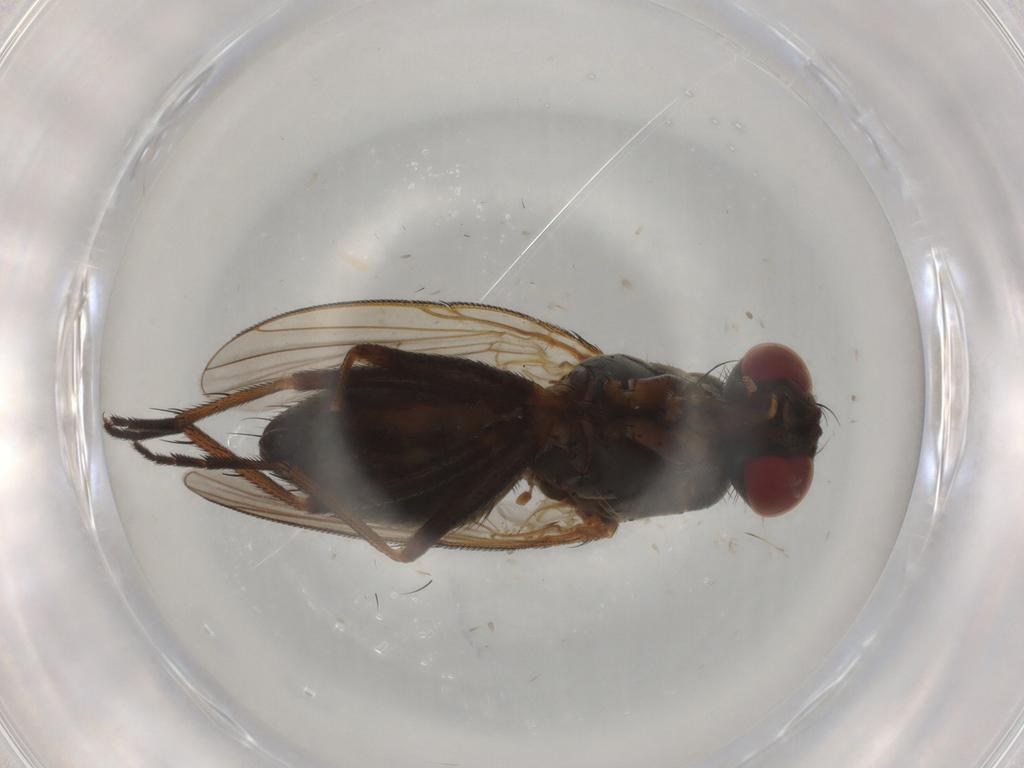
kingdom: Animalia
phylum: Arthropoda
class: Insecta
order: Diptera
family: Muscidae
